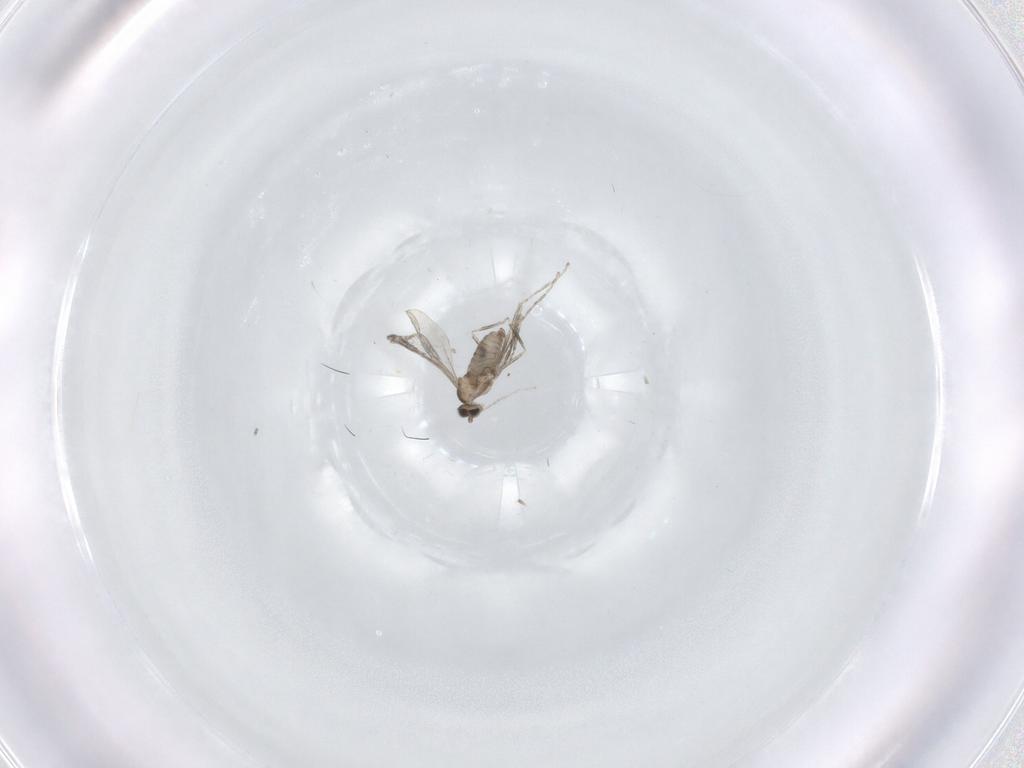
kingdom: Animalia
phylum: Arthropoda
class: Insecta
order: Diptera
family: Cecidomyiidae
